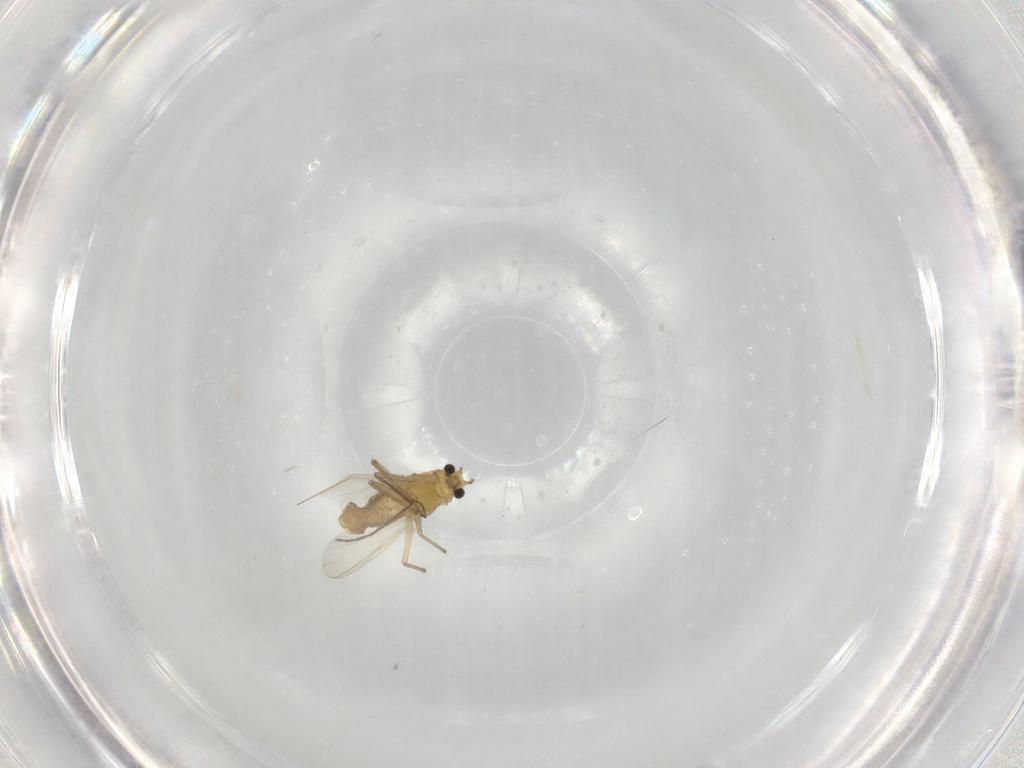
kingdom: Animalia
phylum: Arthropoda
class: Insecta
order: Diptera
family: Chironomidae
